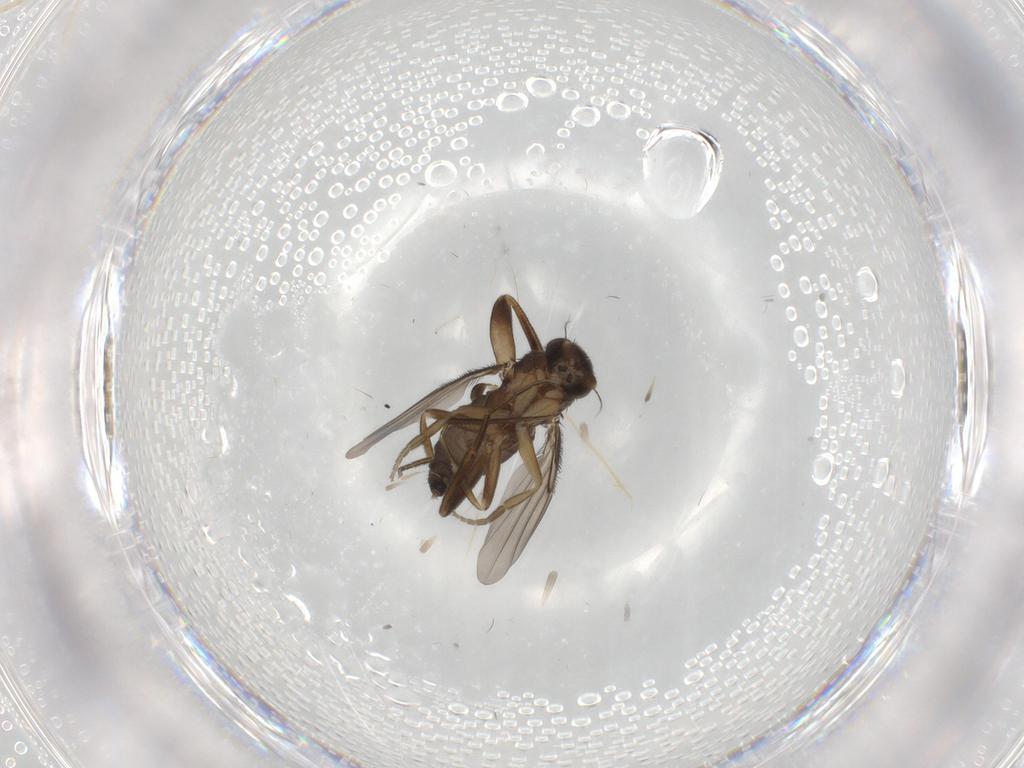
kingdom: Animalia
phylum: Arthropoda
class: Insecta
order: Diptera
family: Phoridae
